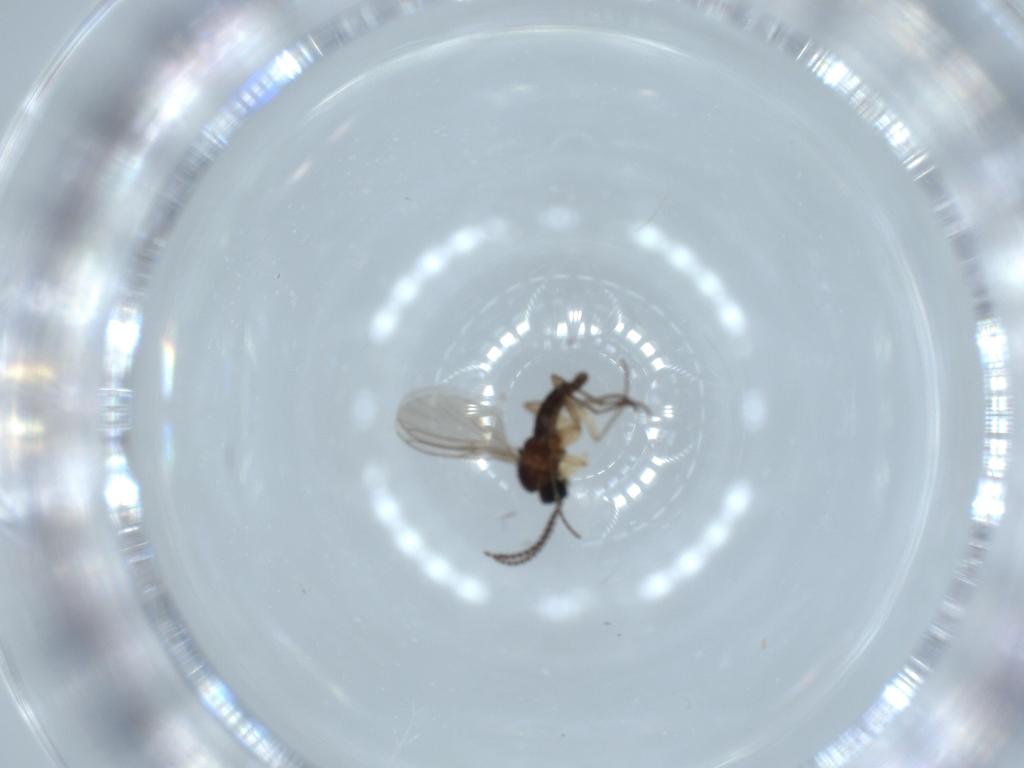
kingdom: Animalia
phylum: Arthropoda
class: Insecta
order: Diptera
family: Sciaridae
